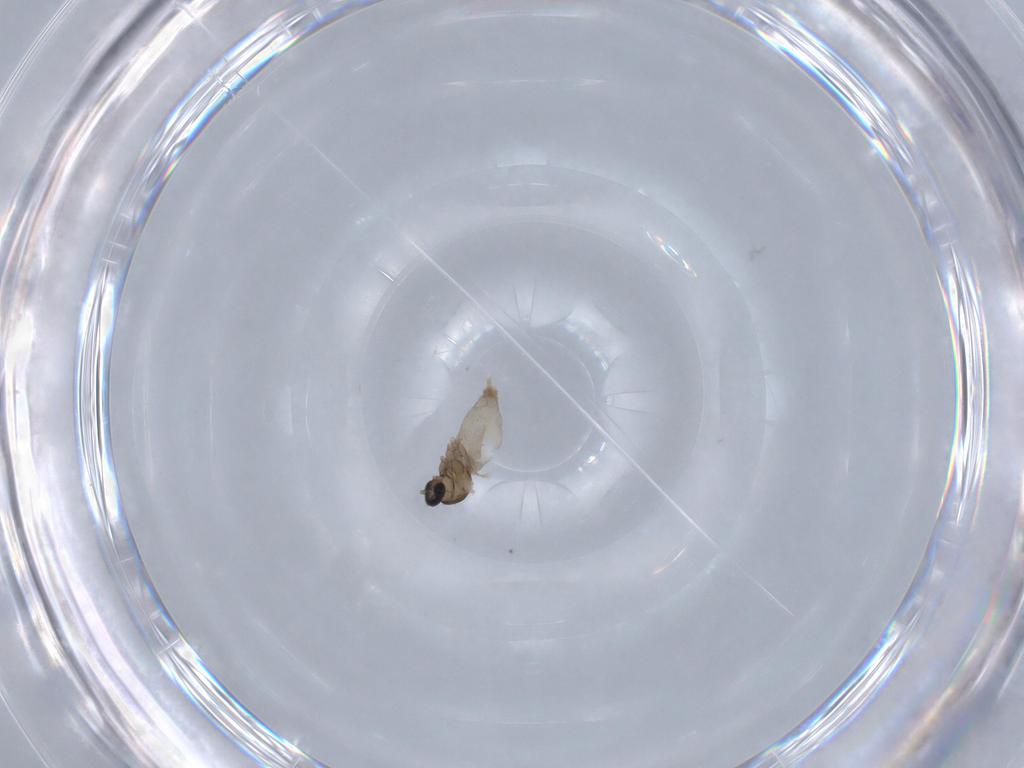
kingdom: Animalia
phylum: Arthropoda
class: Insecta
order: Diptera
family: Cecidomyiidae
